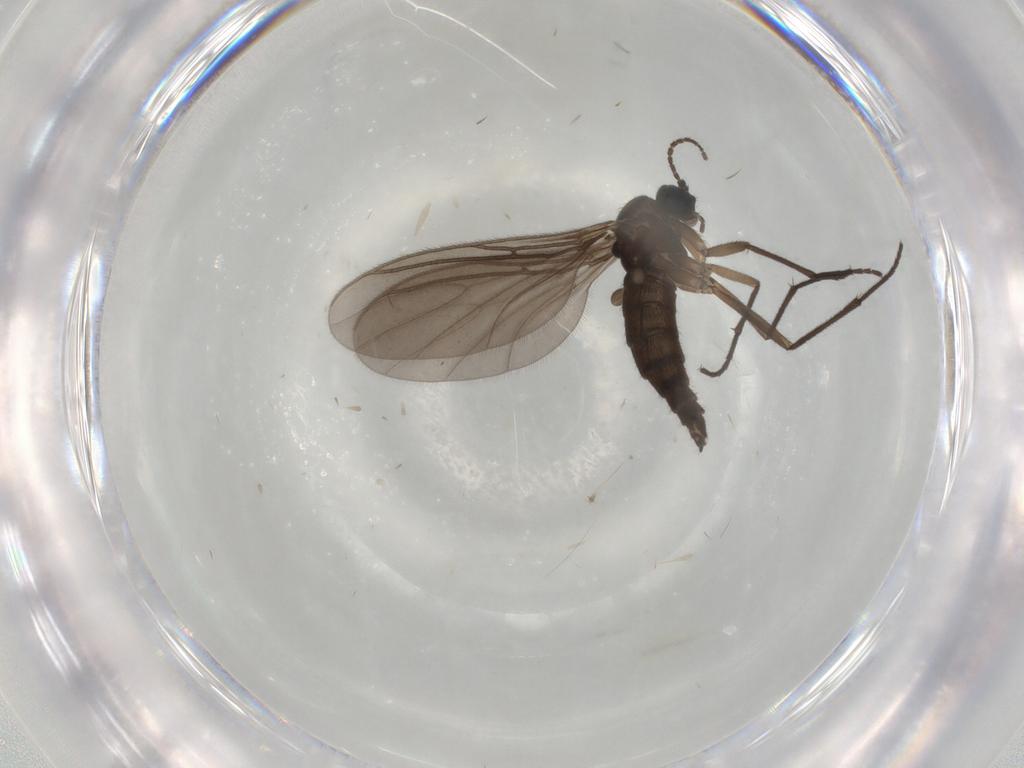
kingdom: Animalia
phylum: Arthropoda
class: Insecta
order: Diptera
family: Sciaridae
